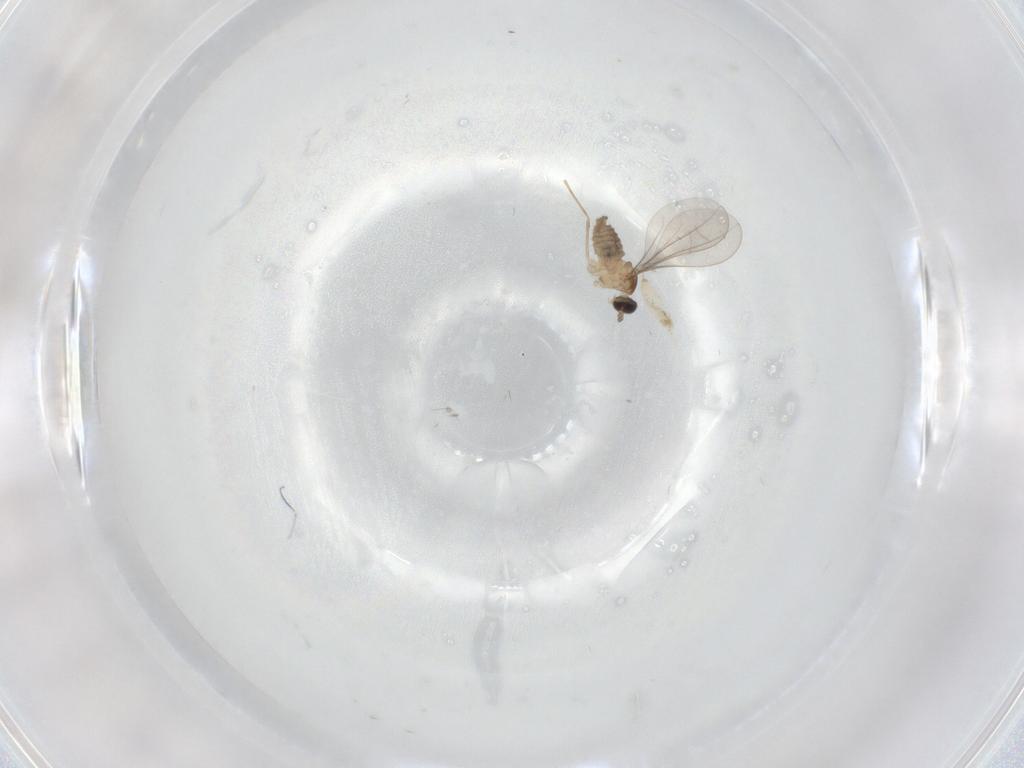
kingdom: Animalia
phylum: Arthropoda
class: Insecta
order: Diptera
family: Cecidomyiidae
